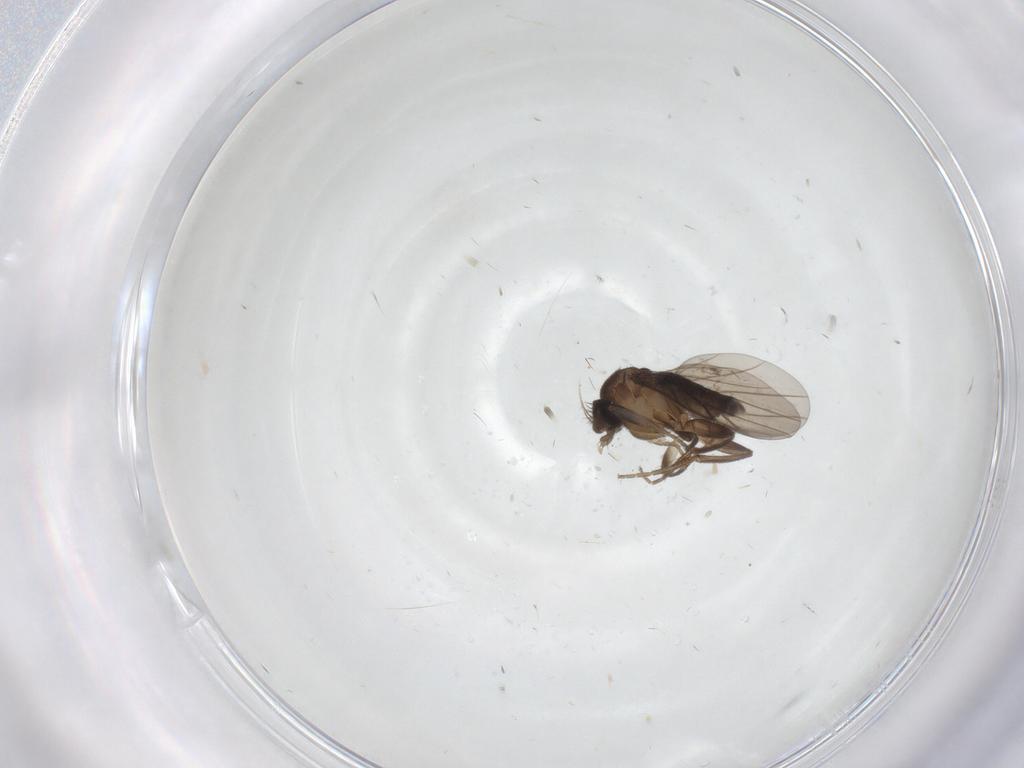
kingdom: Animalia
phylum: Arthropoda
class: Insecta
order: Diptera
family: Cecidomyiidae
